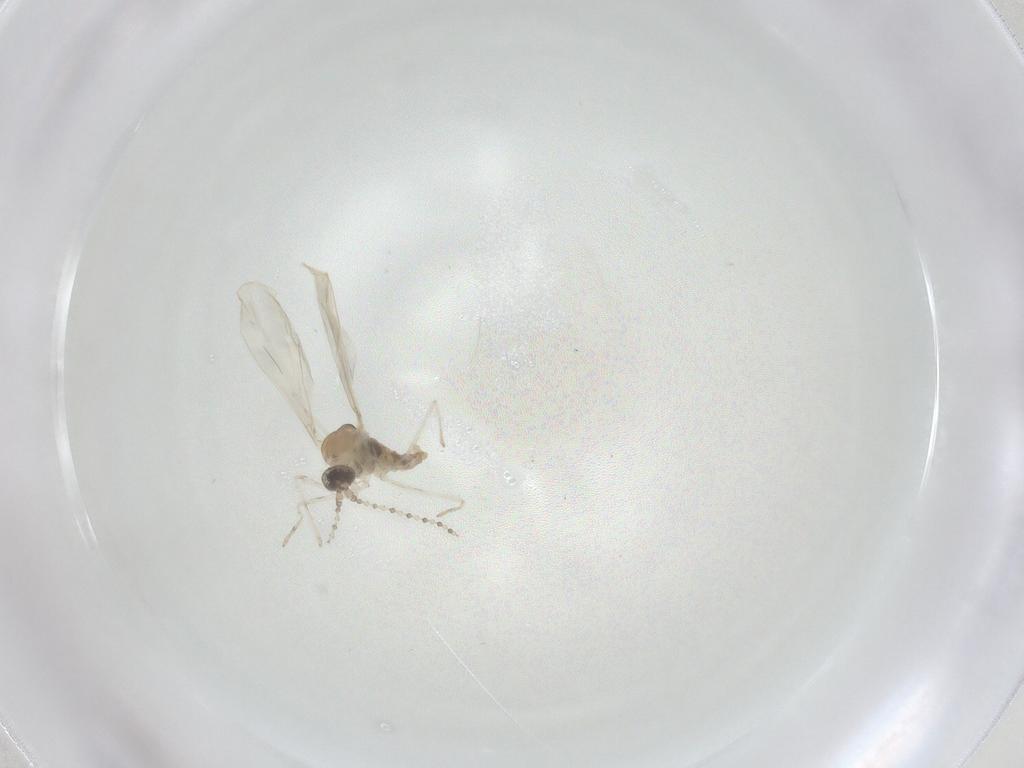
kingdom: Animalia
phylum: Arthropoda
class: Insecta
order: Diptera
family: Cecidomyiidae
